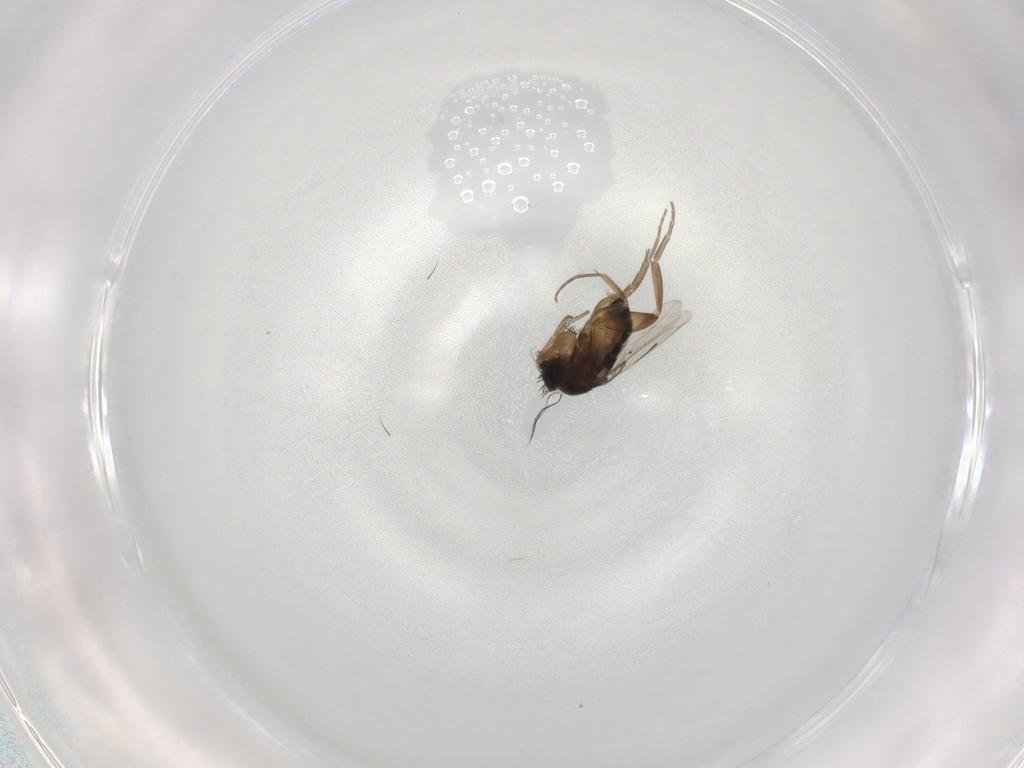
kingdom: Animalia
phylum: Arthropoda
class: Insecta
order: Diptera
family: Phoridae
